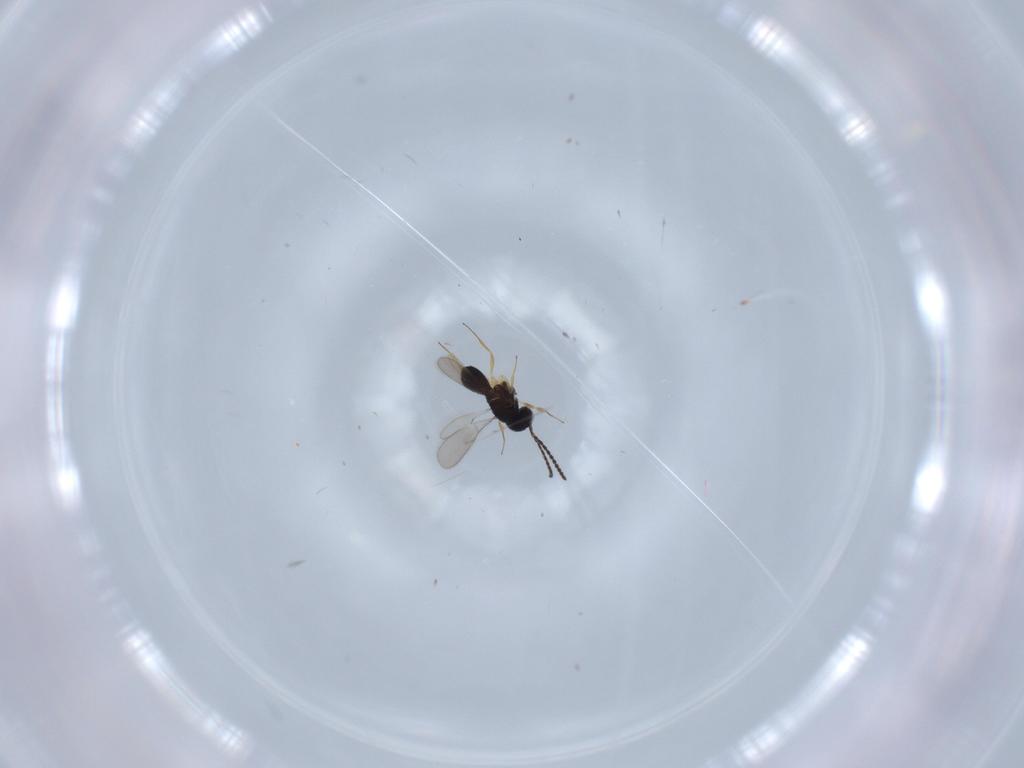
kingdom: Animalia
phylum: Arthropoda
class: Insecta
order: Hymenoptera
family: Scelionidae
